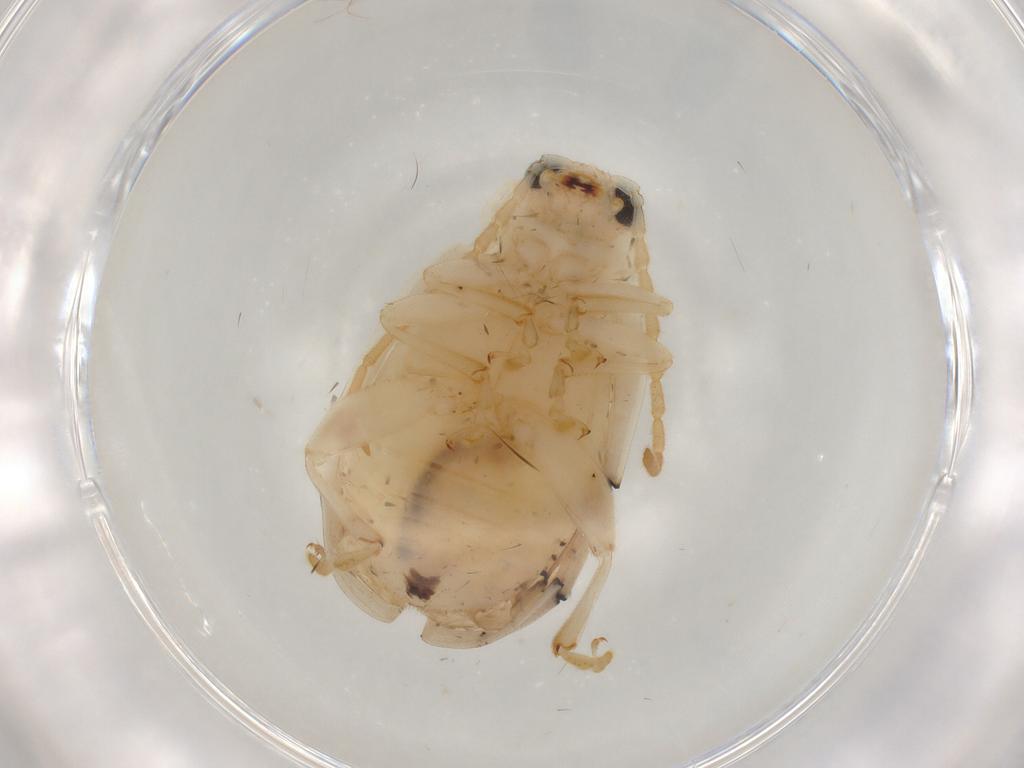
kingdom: Animalia
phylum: Arthropoda
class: Insecta
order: Coleoptera
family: Chrysomelidae
